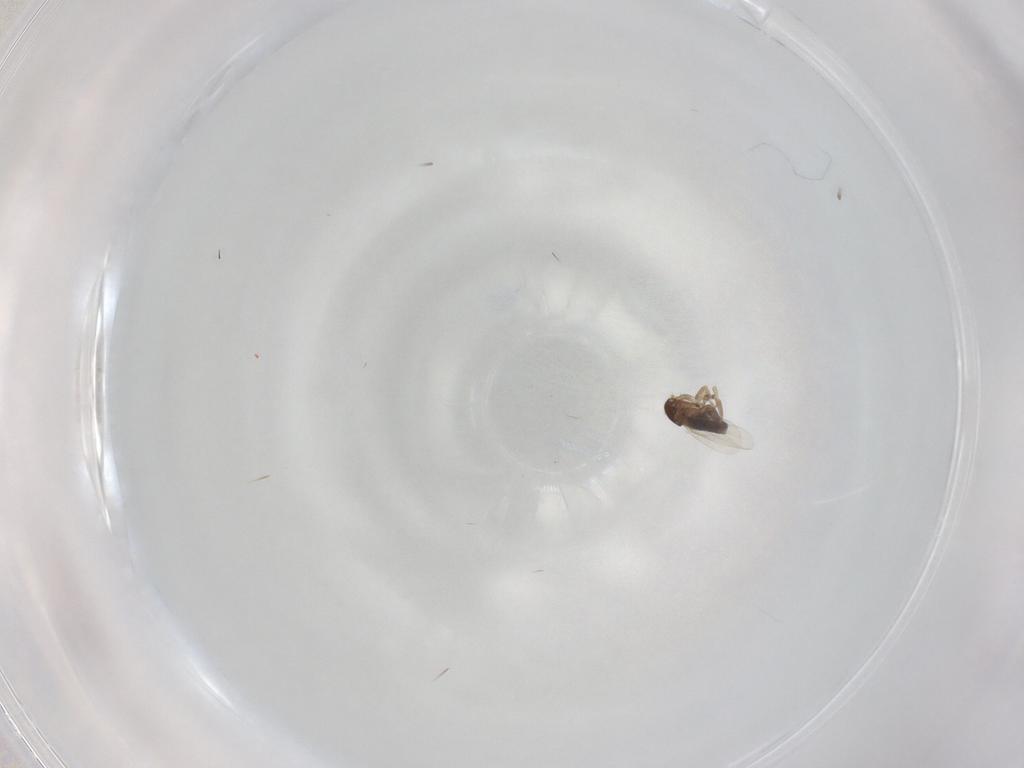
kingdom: Animalia
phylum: Arthropoda
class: Insecta
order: Diptera
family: Phoridae
